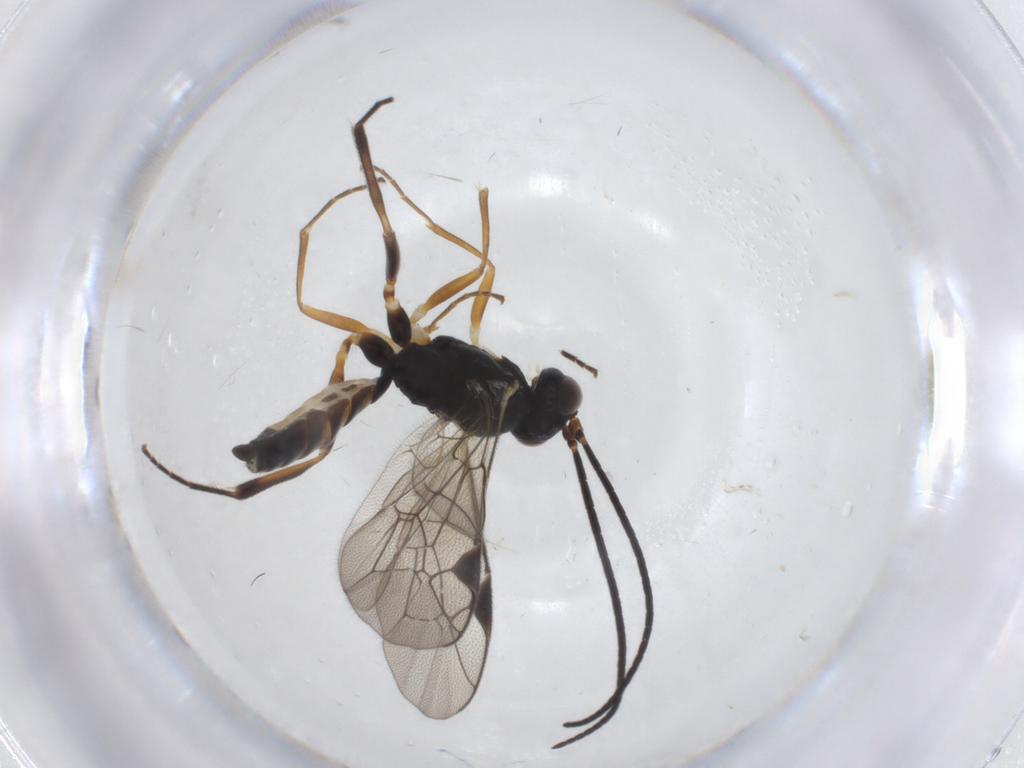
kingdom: Animalia
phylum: Arthropoda
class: Insecta
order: Hymenoptera
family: Ichneumonidae
